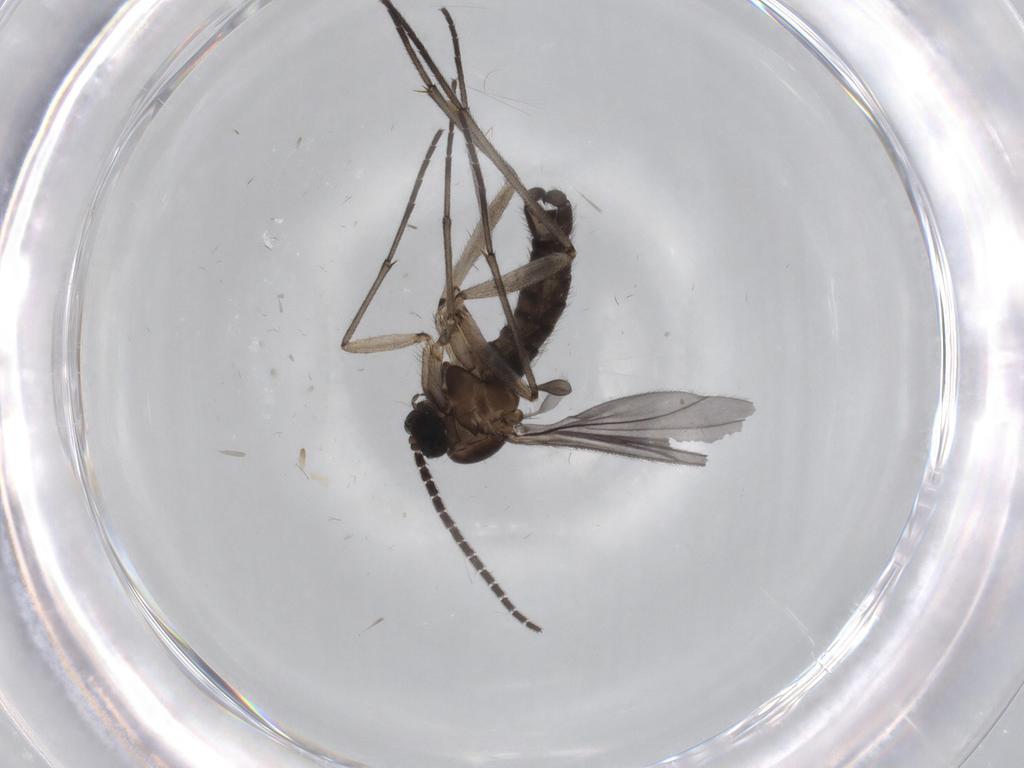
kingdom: Animalia
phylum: Arthropoda
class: Insecta
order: Diptera
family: Sciaridae
